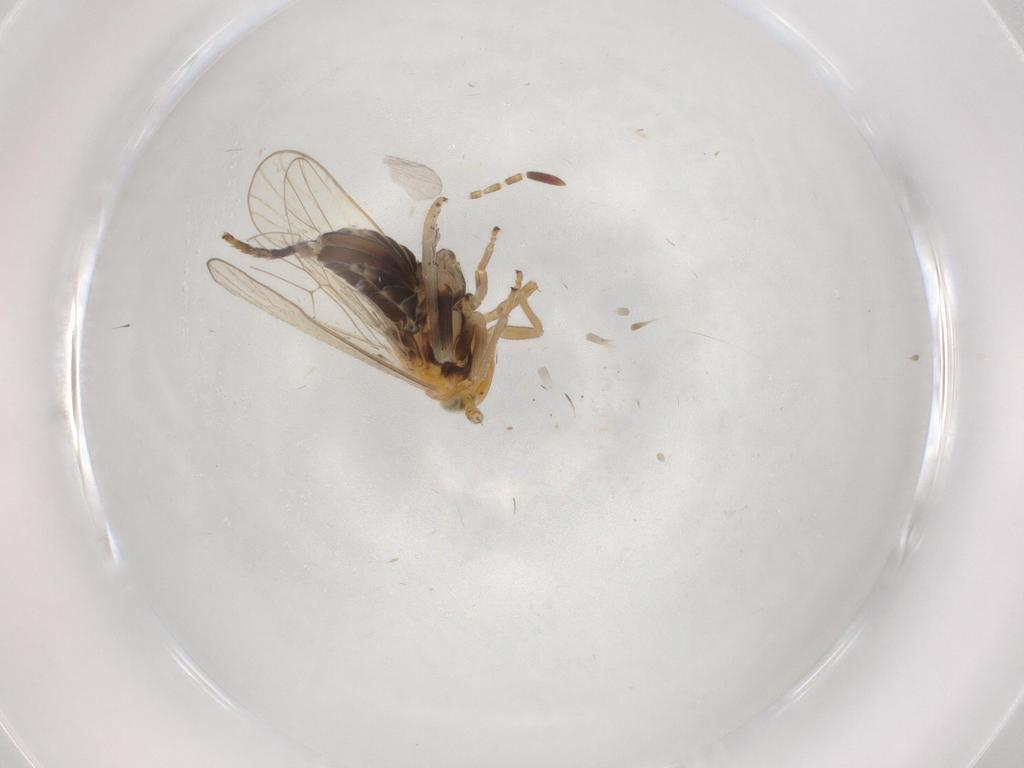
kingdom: Animalia
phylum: Arthropoda
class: Insecta
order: Hemiptera
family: Delphacidae
